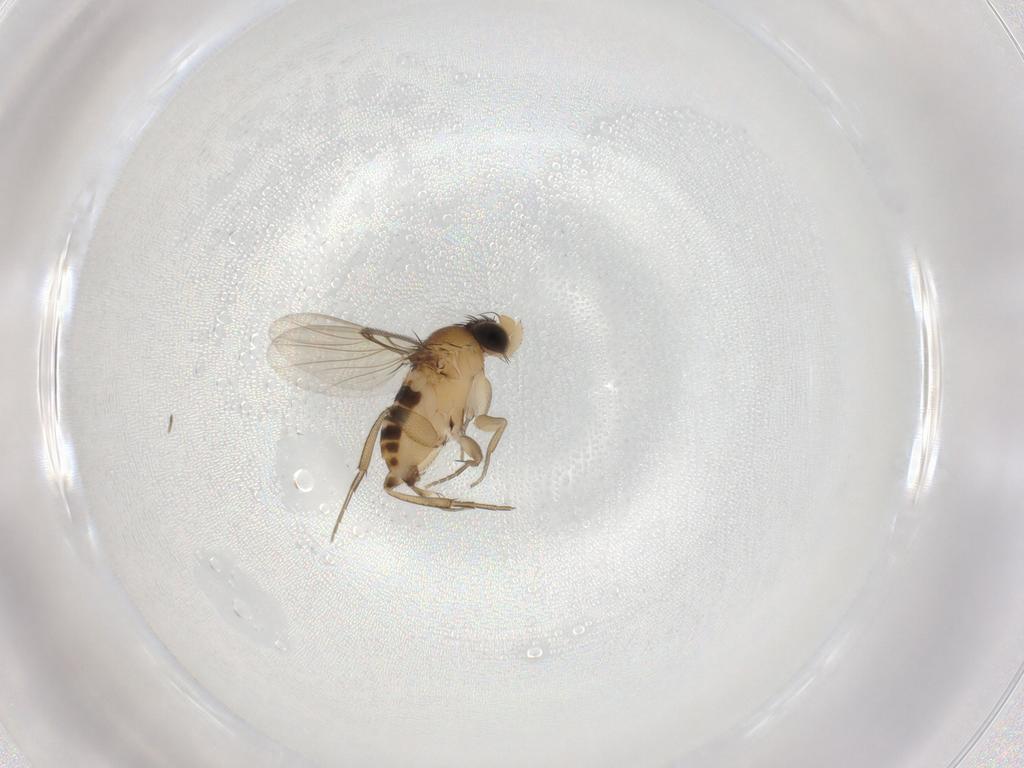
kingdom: Animalia
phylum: Arthropoda
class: Insecta
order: Diptera
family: Phoridae
